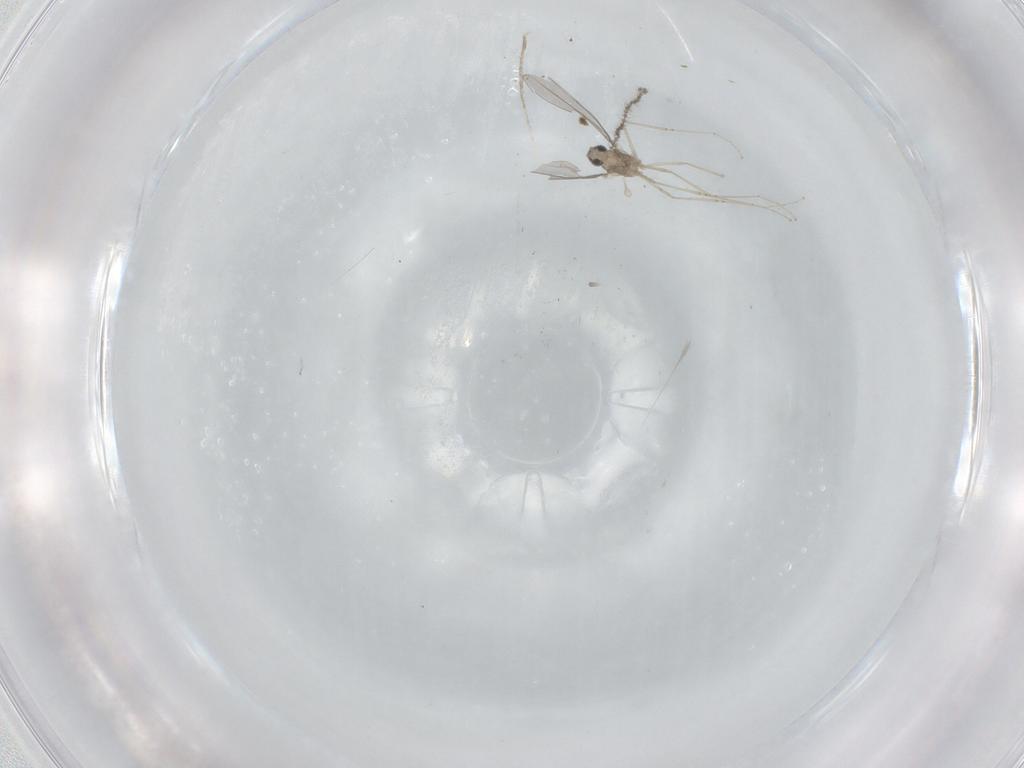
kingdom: Animalia
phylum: Arthropoda
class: Insecta
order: Diptera
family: Cecidomyiidae
